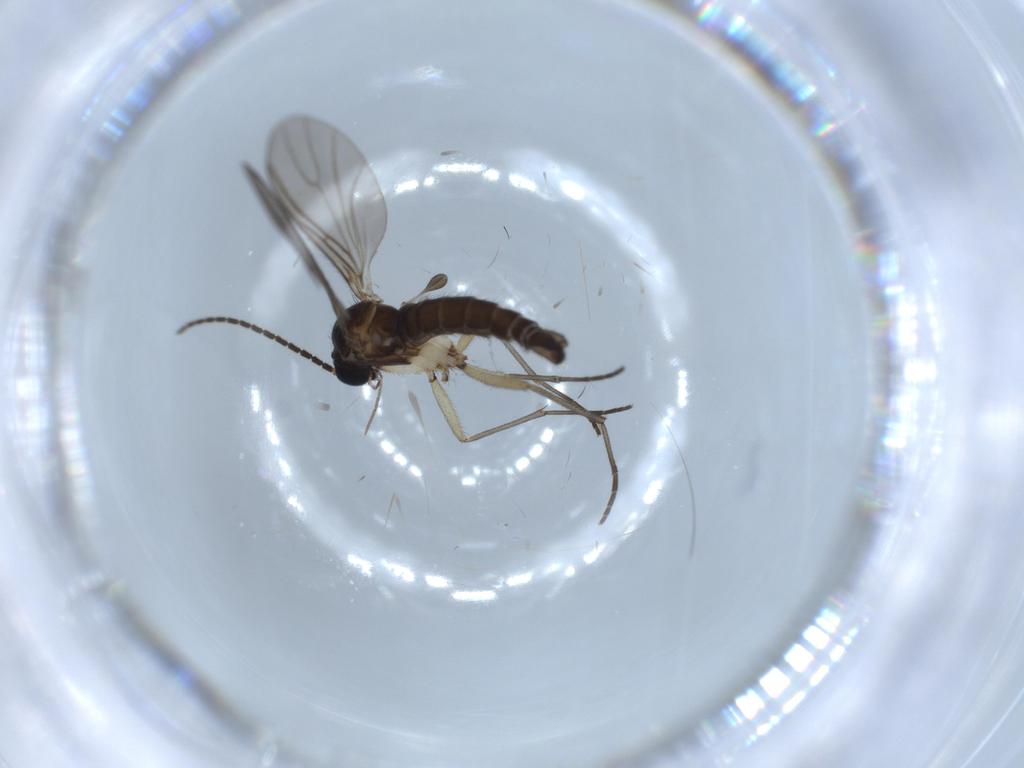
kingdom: Animalia
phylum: Arthropoda
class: Insecta
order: Diptera
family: Sciaridae
